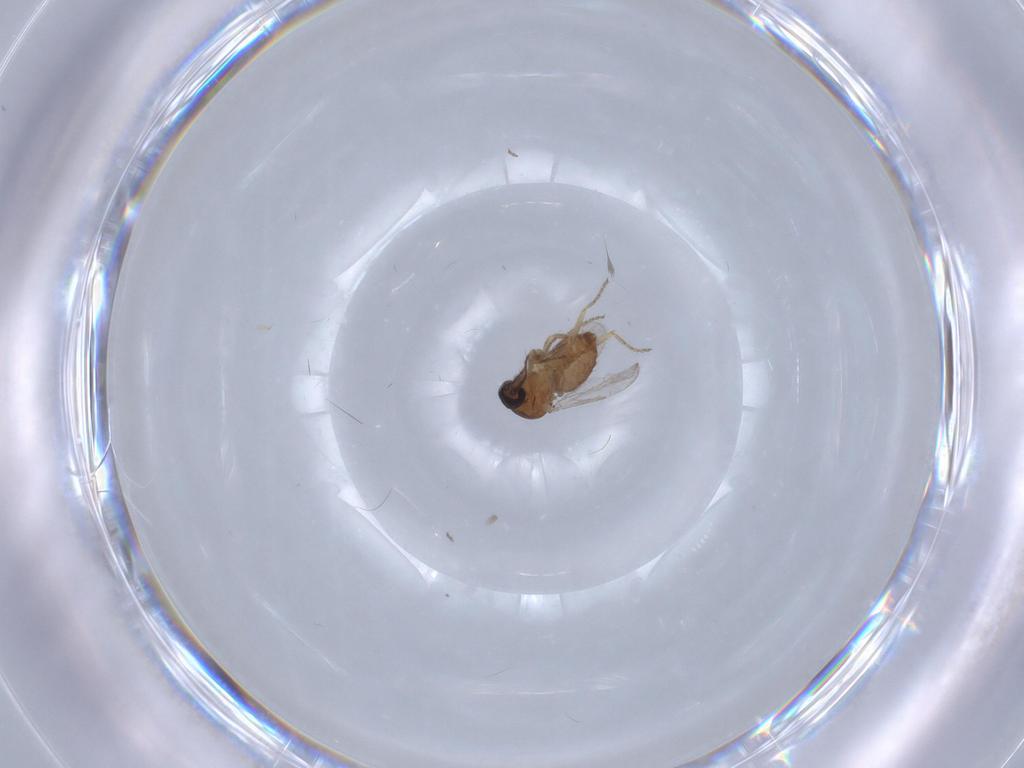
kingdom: Animalia
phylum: Arthropoda
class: Insecta
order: Diptera
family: Ceratopogonidae
